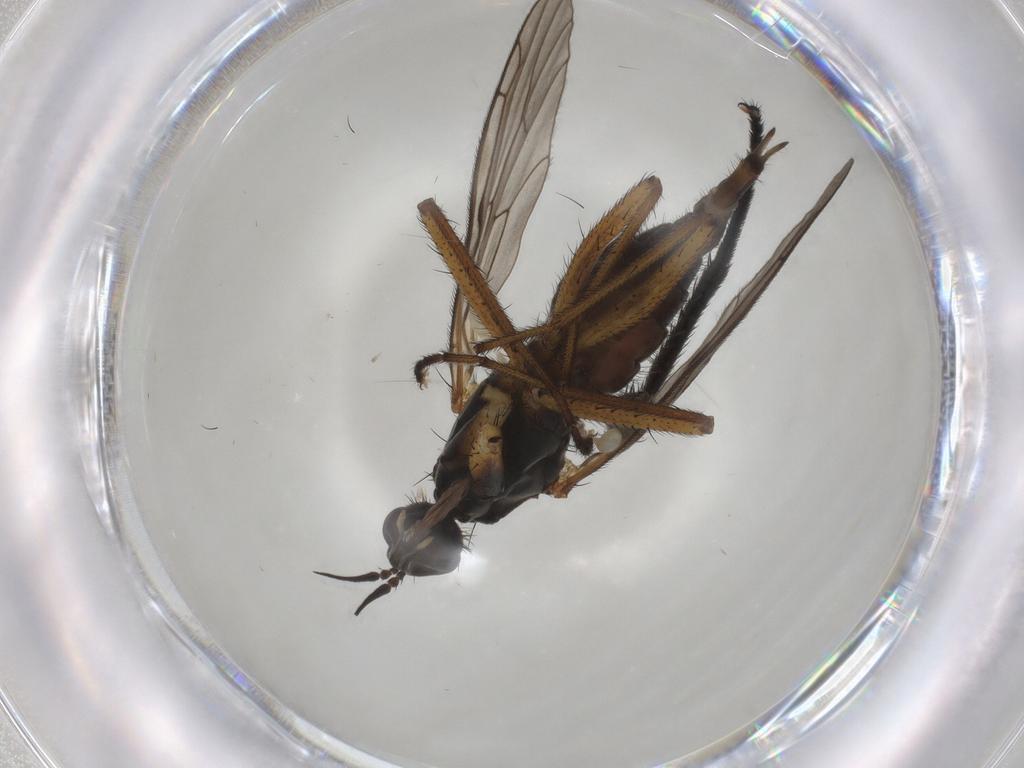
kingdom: Animalia
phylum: Arthropoda
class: Insecta
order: Diptera
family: Empididae
